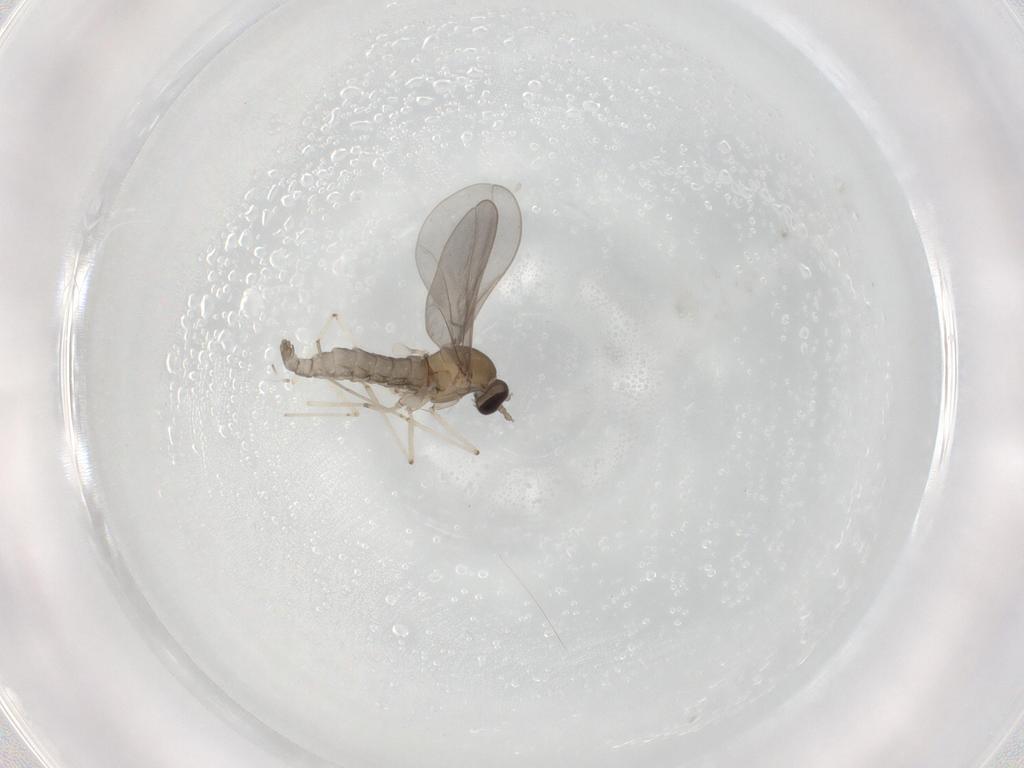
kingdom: Animalia
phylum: Arthropoda
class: Insecta
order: Diptera
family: Cecidomyiidae
